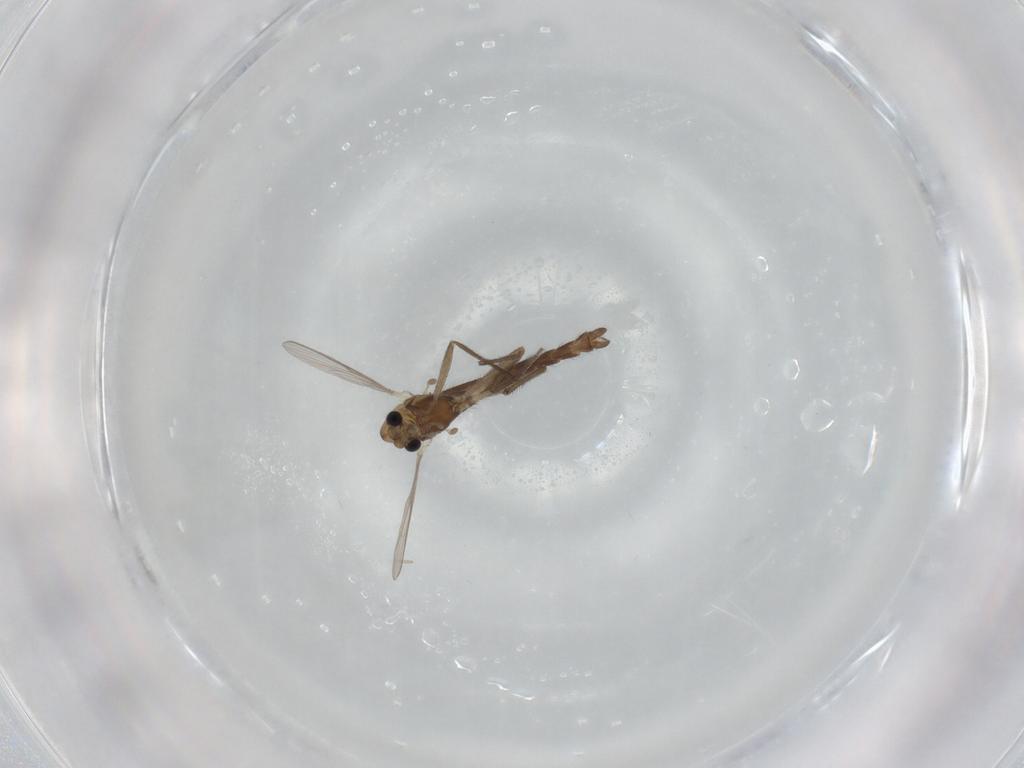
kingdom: Animalia
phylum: Arthropoda
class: Insecta
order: Diptera
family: Chironomidae
